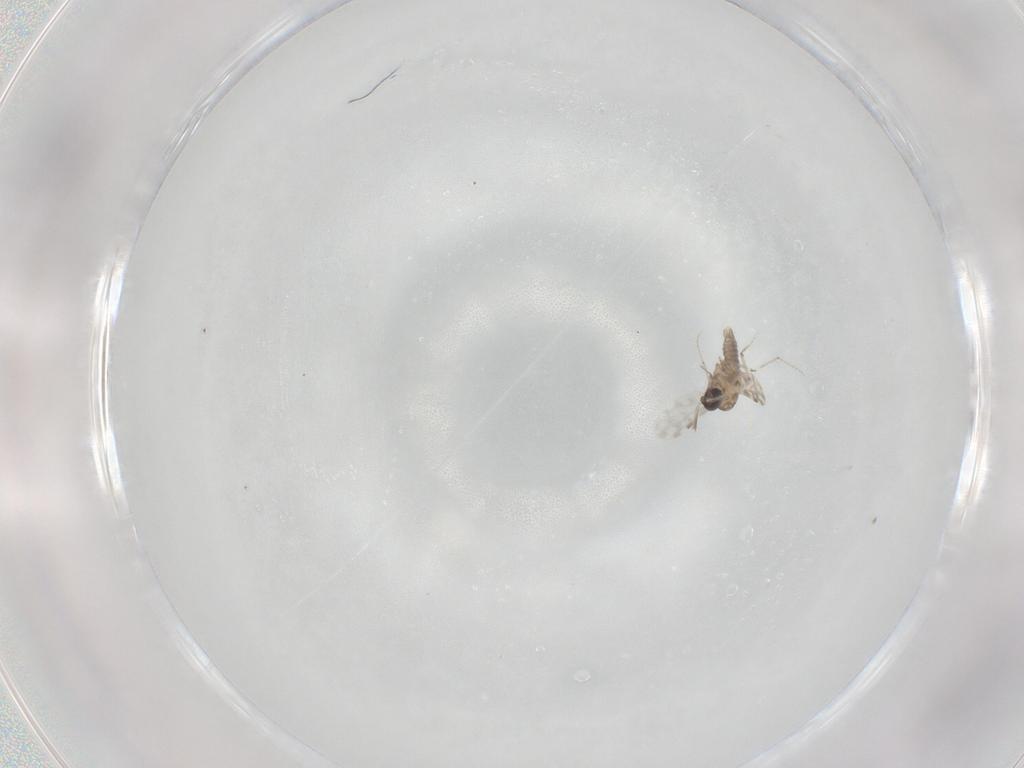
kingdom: Animalia
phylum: Arthropoda
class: Insecta
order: Diptera
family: Ceratopogonidae
